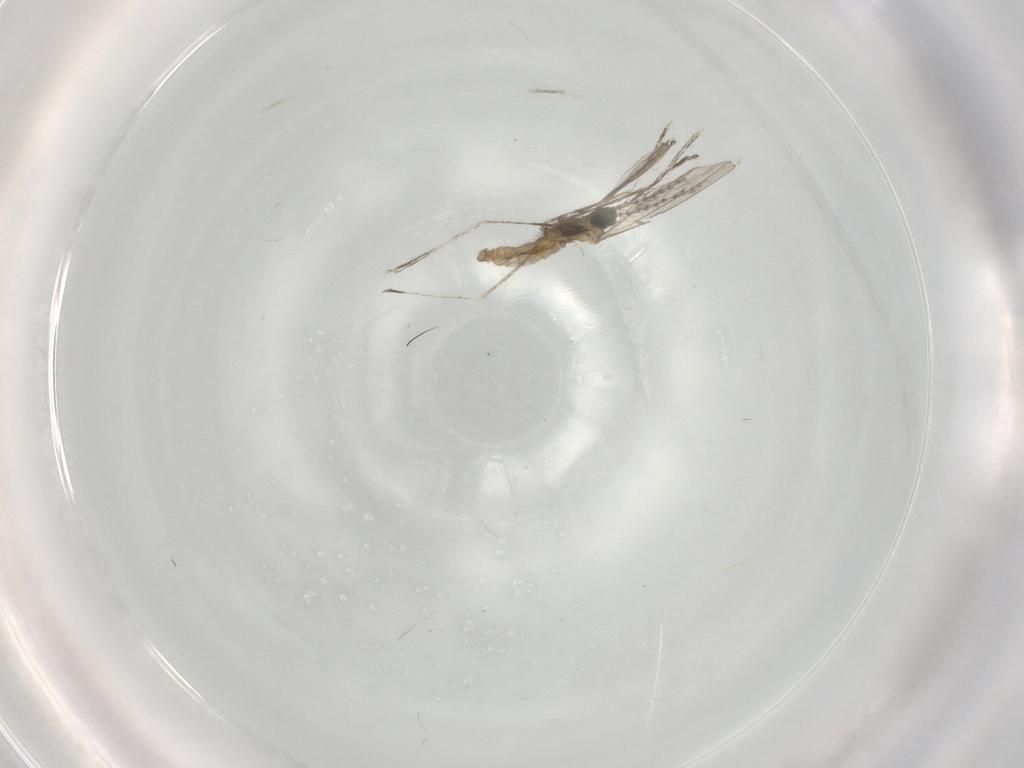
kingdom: Animalia
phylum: Arthropoda
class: Insecta
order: Diptera
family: Cecidomyiidae
